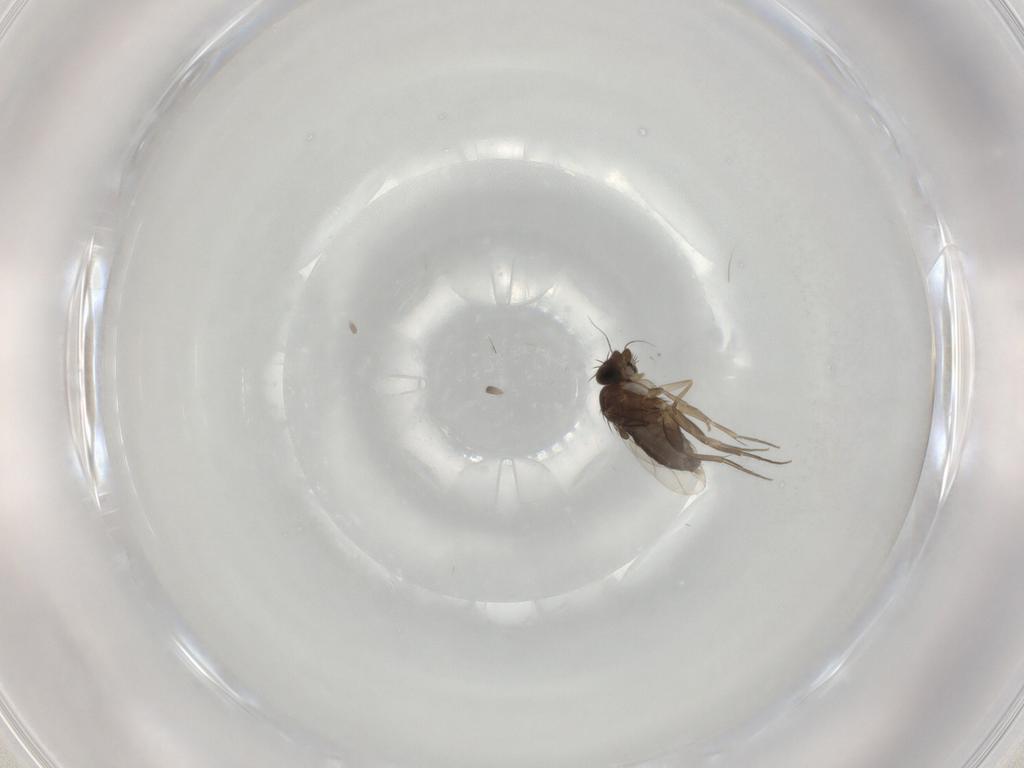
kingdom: Animalia
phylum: Arthropoda
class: Insecta
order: Diptera
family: Phoridae
